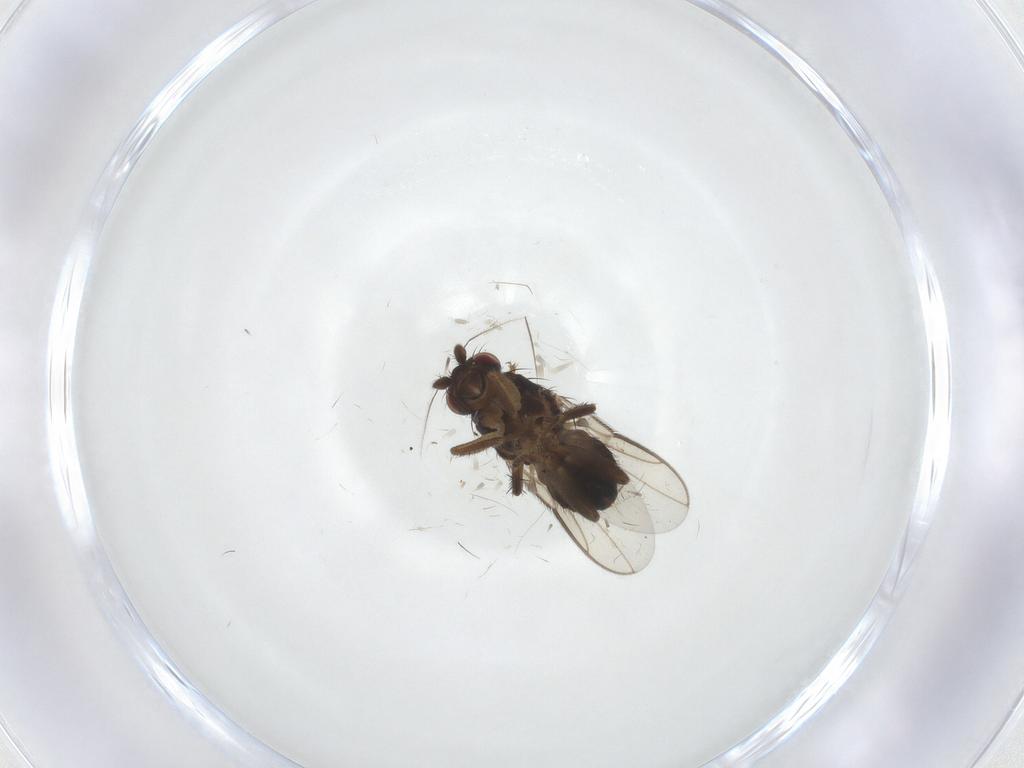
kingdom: Animalia
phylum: Arthropoda
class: Insecta
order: Diptera
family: Sphaeroceridae
